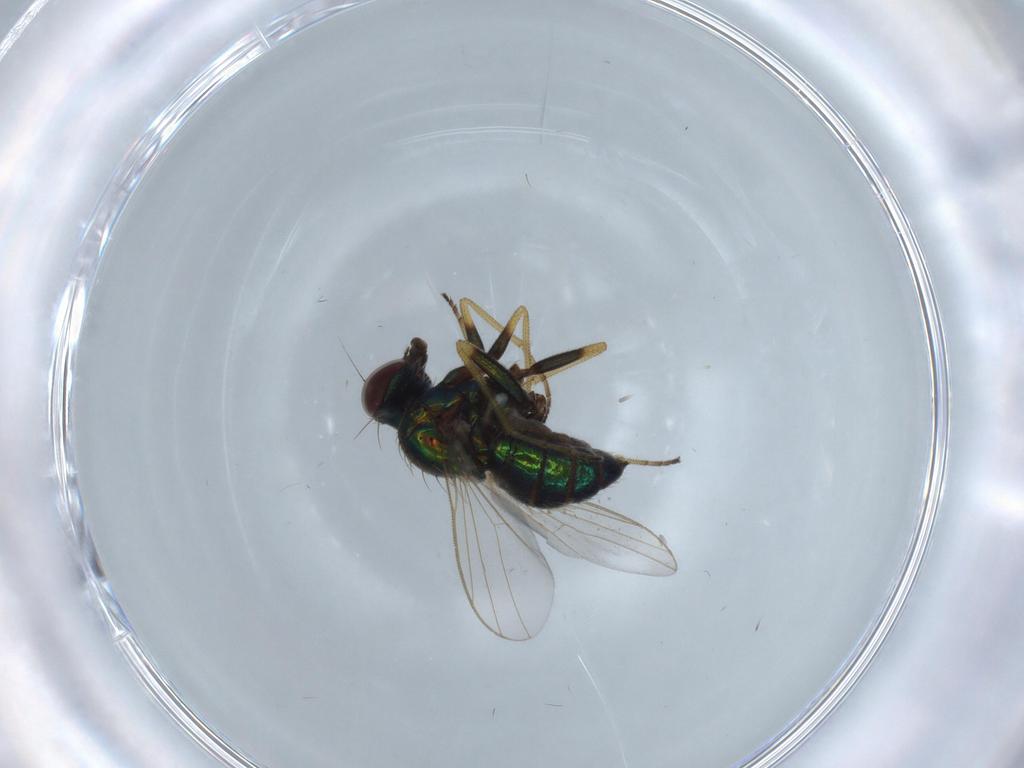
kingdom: Animalia
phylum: Arthropoda
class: Insecta
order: Diptera
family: Dolichopodidae
